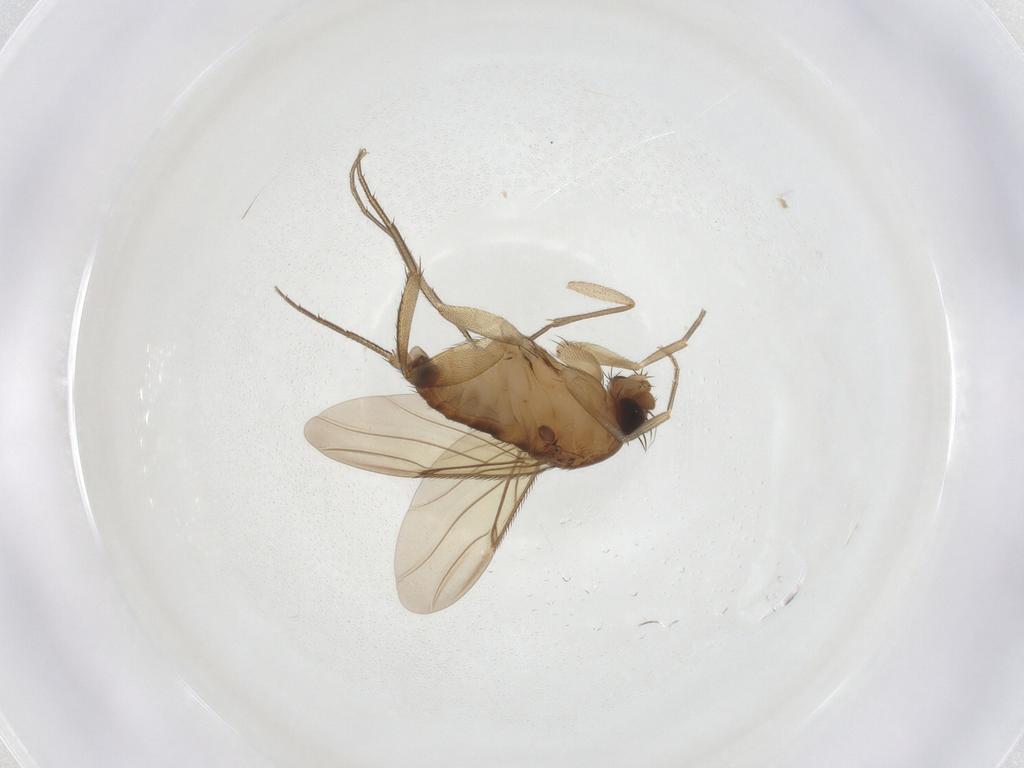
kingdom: Animalia
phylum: Arthropoda
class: Insecta
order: Diptera
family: Phoridae
